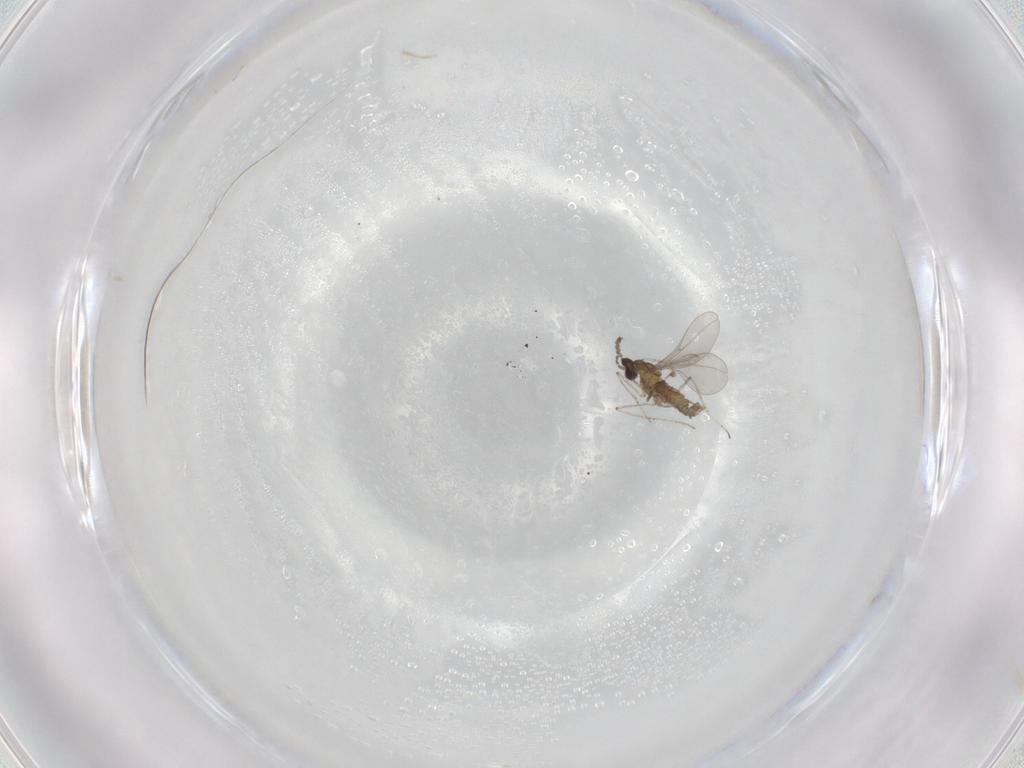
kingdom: Animalia
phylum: Arthropoda
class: Insecta
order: Diptera
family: Cecidomyiidae
